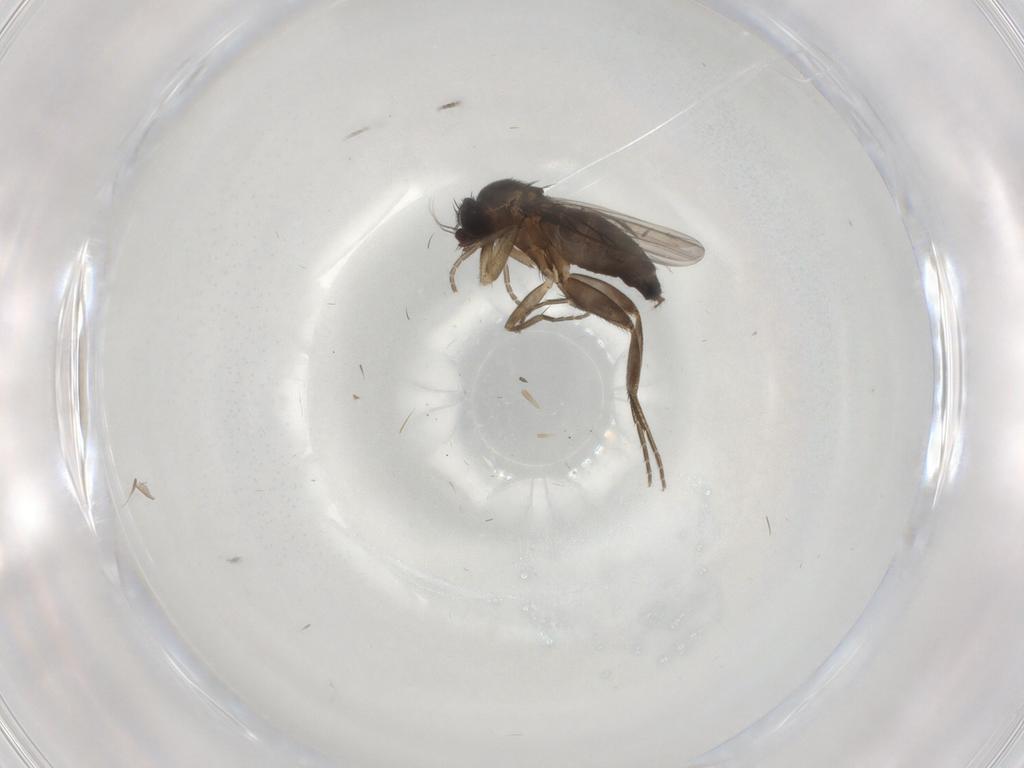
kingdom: Animalia
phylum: Arthropoda
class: Insecta
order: Diptera
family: Phoridae
